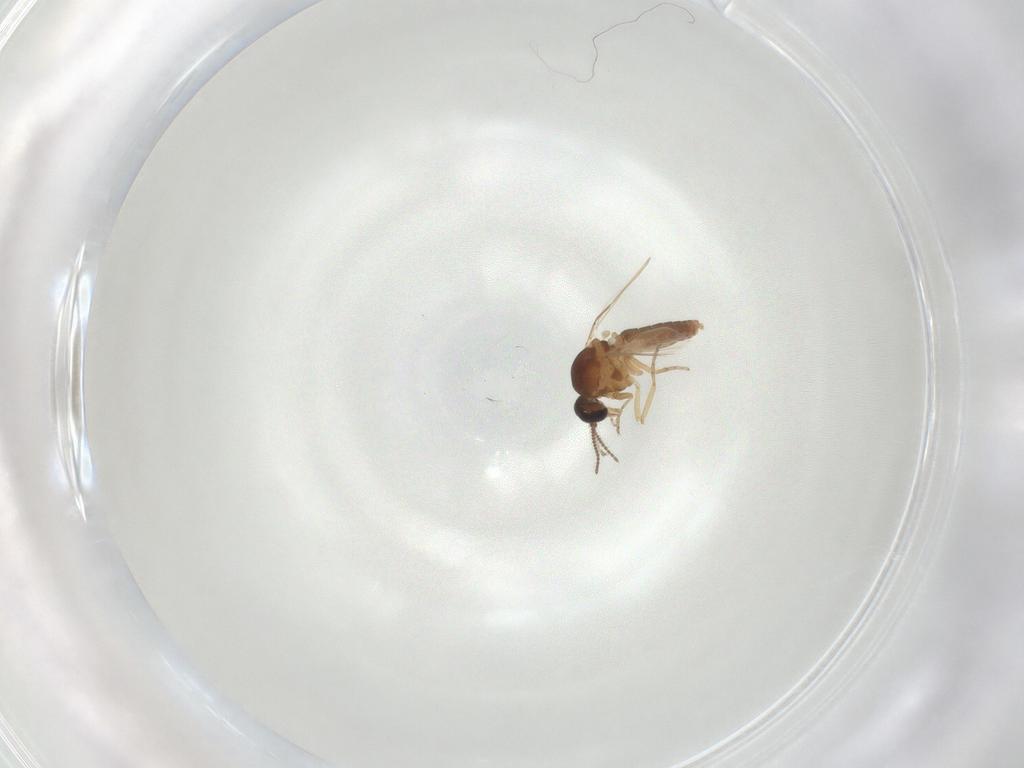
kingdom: Animalia
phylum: Arthropoda
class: Insecta
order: Diptera
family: Ceratopogonidae
